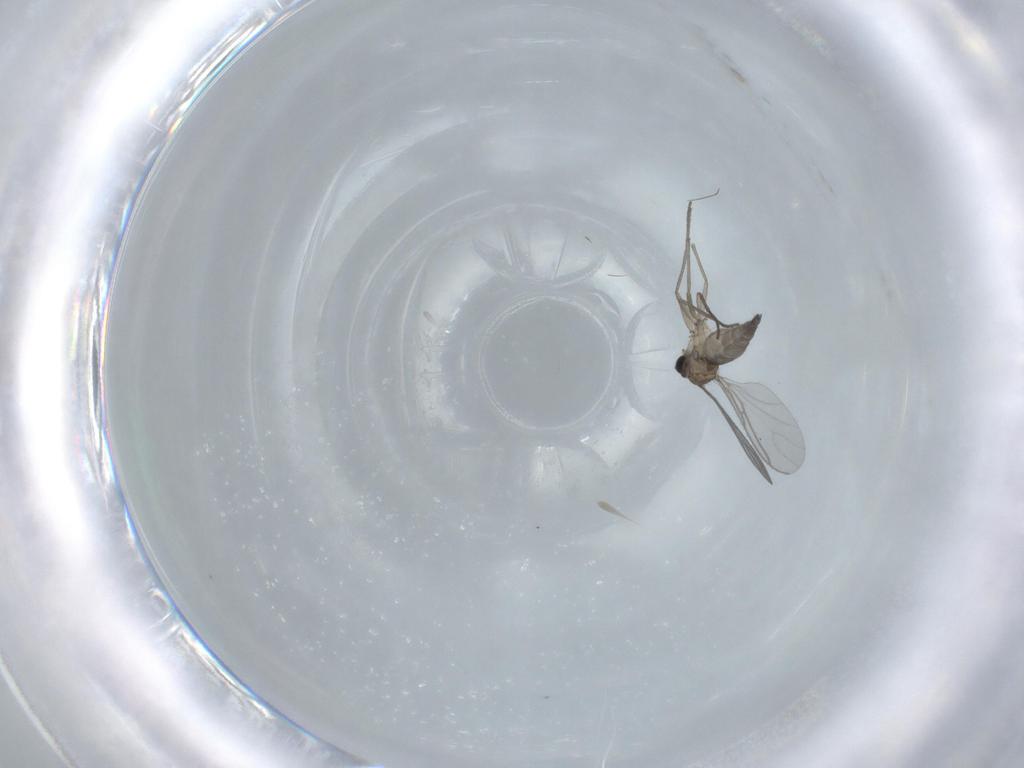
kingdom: Animalia
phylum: Arthropoda
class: Insecta
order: Diptera
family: Sciaridae
